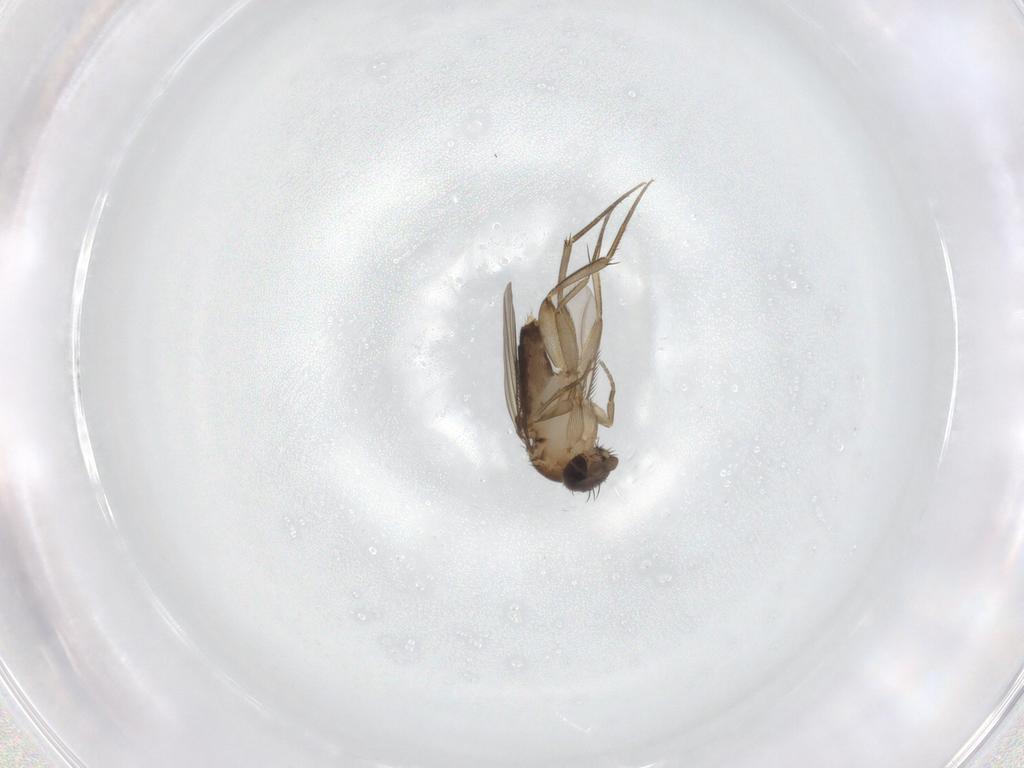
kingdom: Animalia
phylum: Arthropoda
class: Insecta
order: Diptera
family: Phoridae
